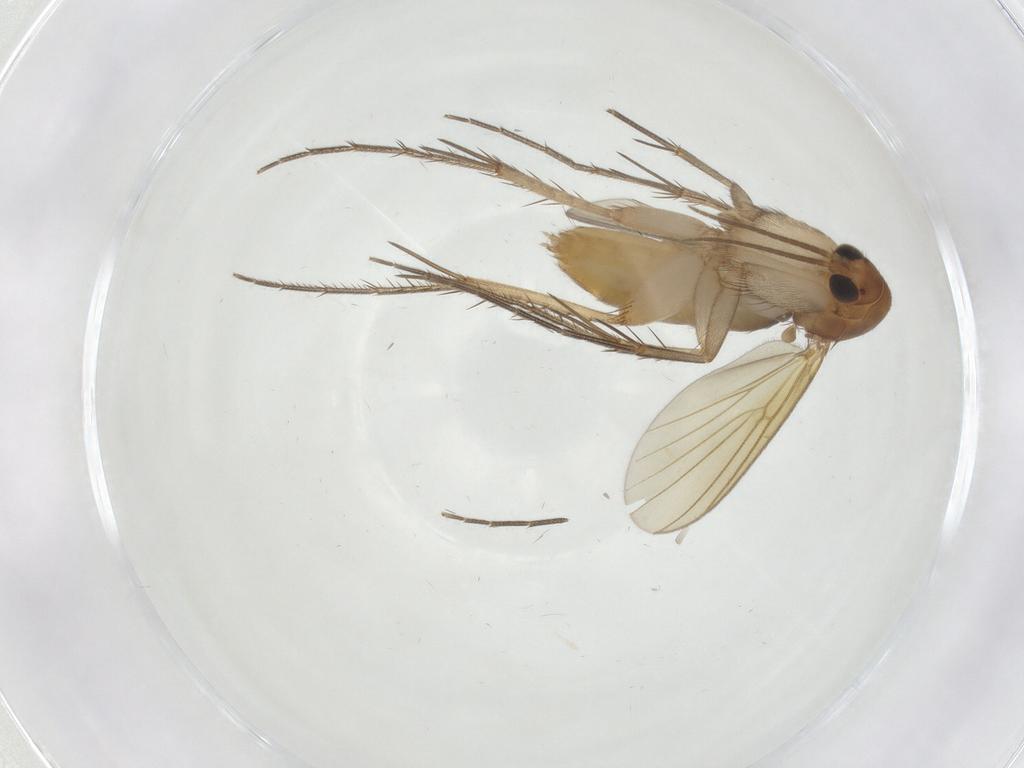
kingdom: Animalia
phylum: Arthropoda
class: Insecta
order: Diptera
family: Mycetophilidae
